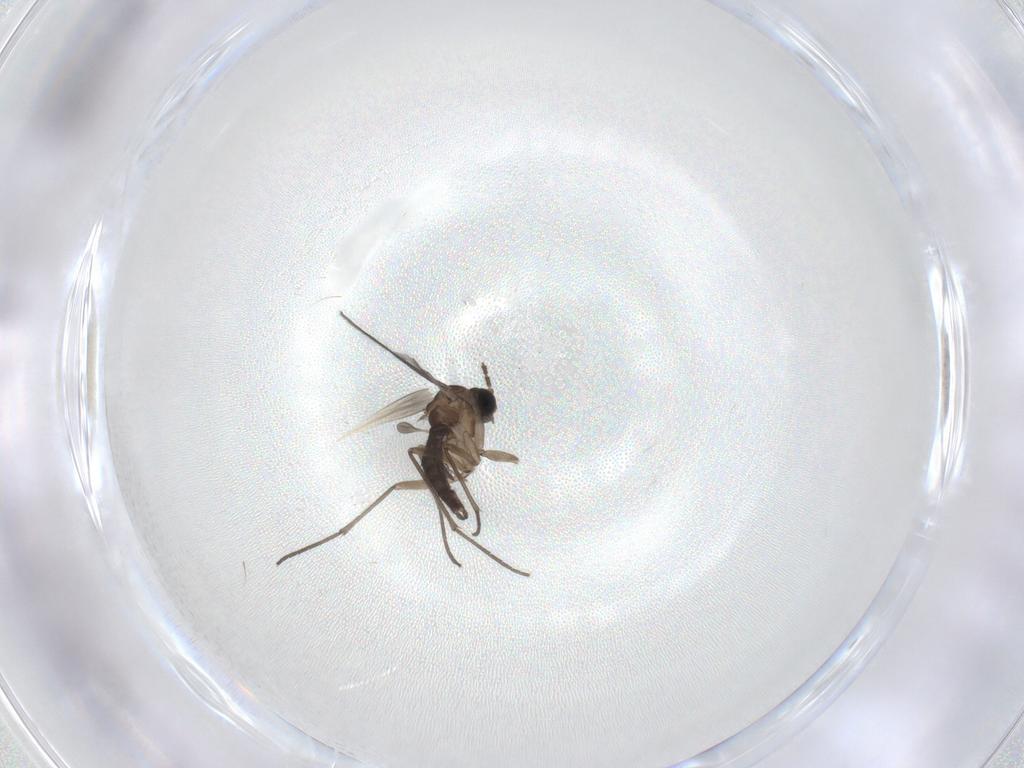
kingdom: Animalia
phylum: Arthropoda
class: Insecta
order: Diptera
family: Ceratopogonidae
